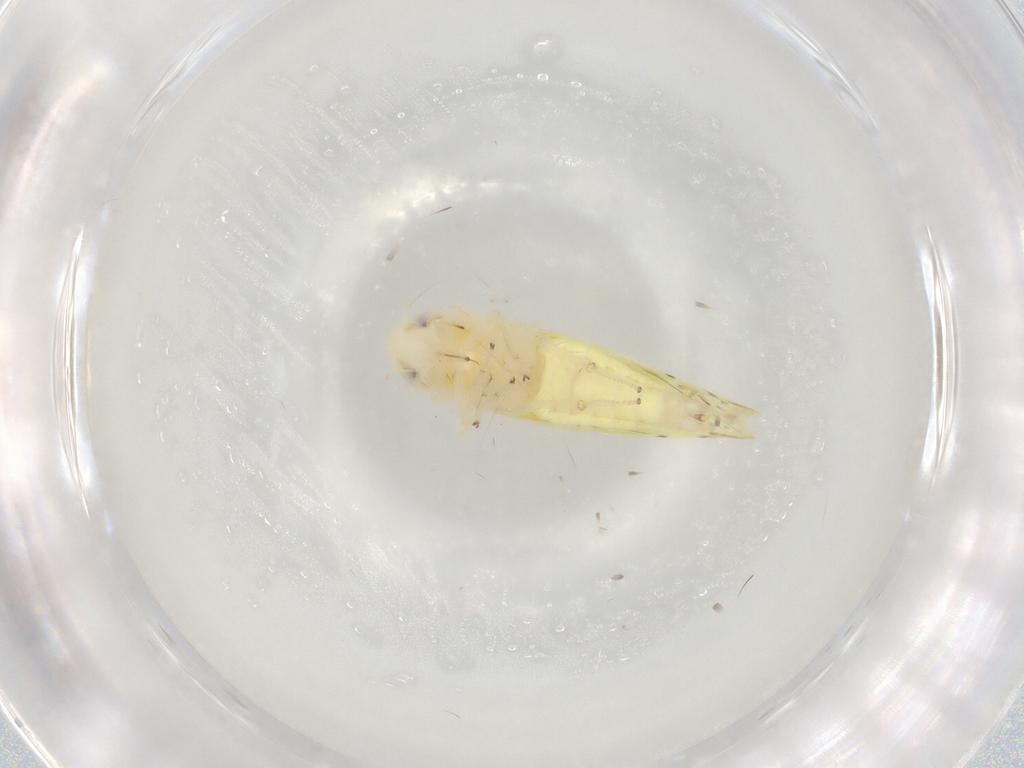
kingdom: Animalia
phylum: Arthropoda
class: Insecta
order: Hemiptera
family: Cicadellidae
